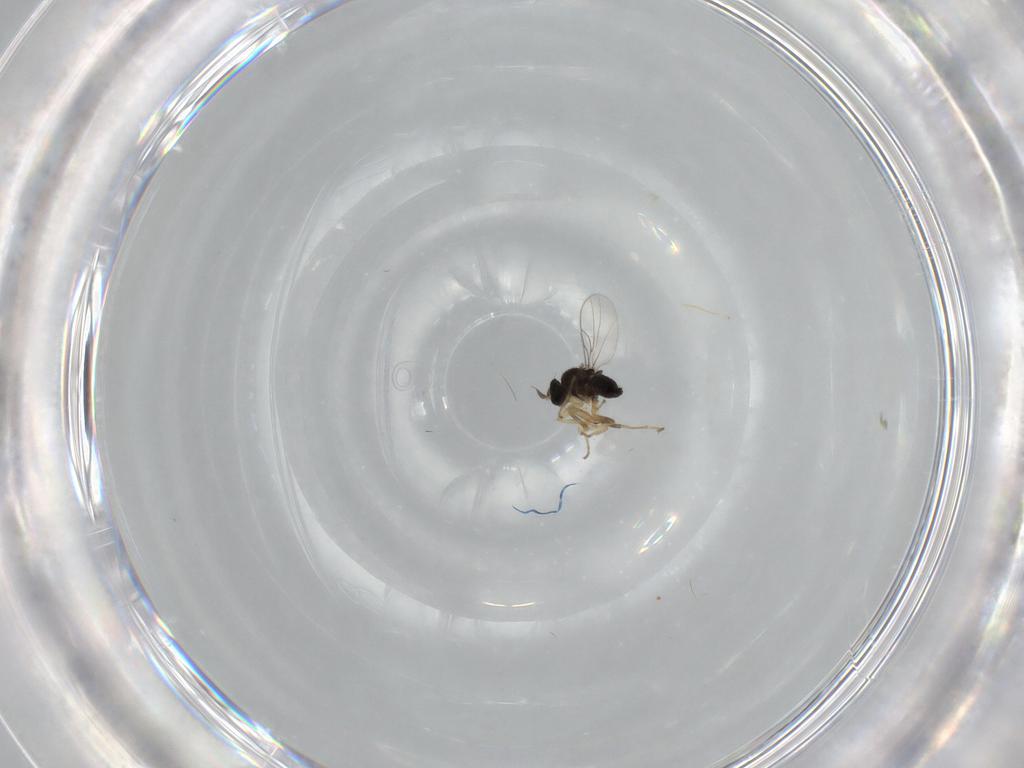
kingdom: Animalia
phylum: Arthropoda
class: Insecta
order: Diptera
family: Hybotidae
